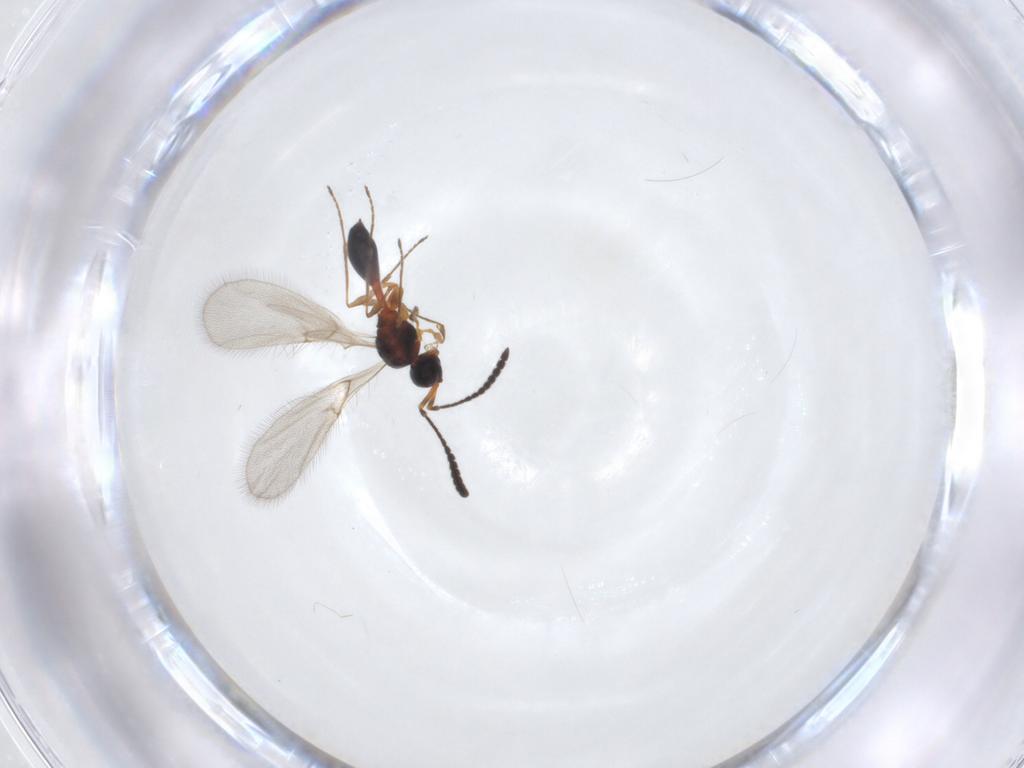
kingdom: Animalia
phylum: Arthropoda
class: Insecta
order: Hymenoptera
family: Diapriidae
